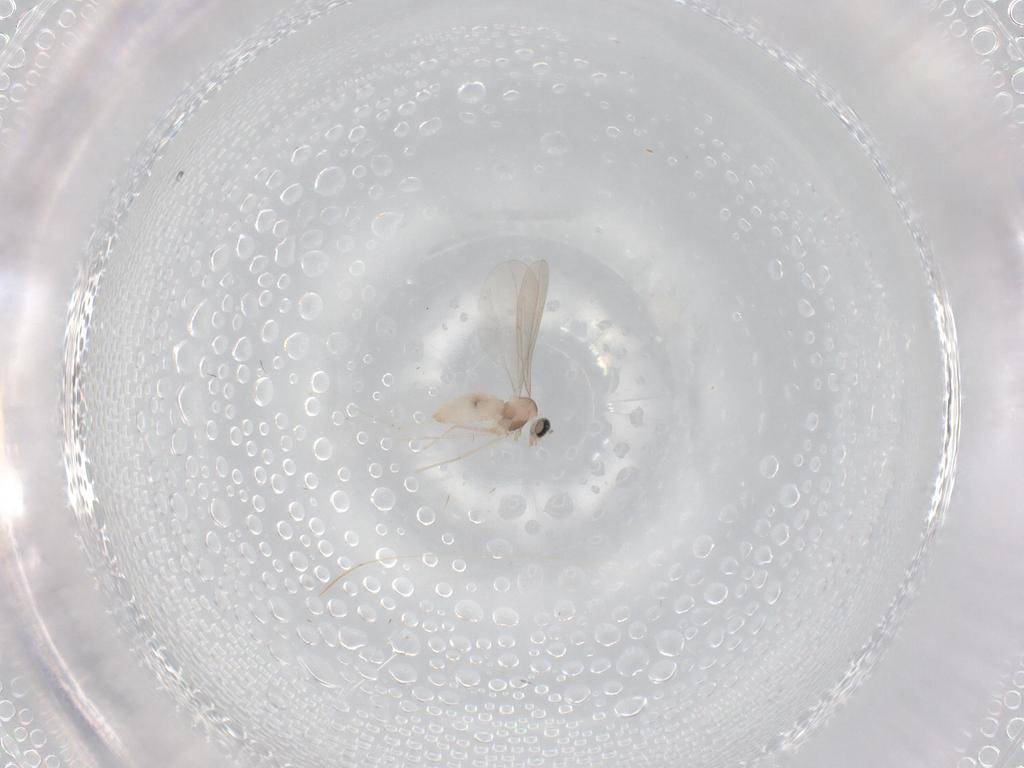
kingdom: Animalia
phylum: Arthropoda
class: Insecta
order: Diptera
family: Cecidomyiidae
